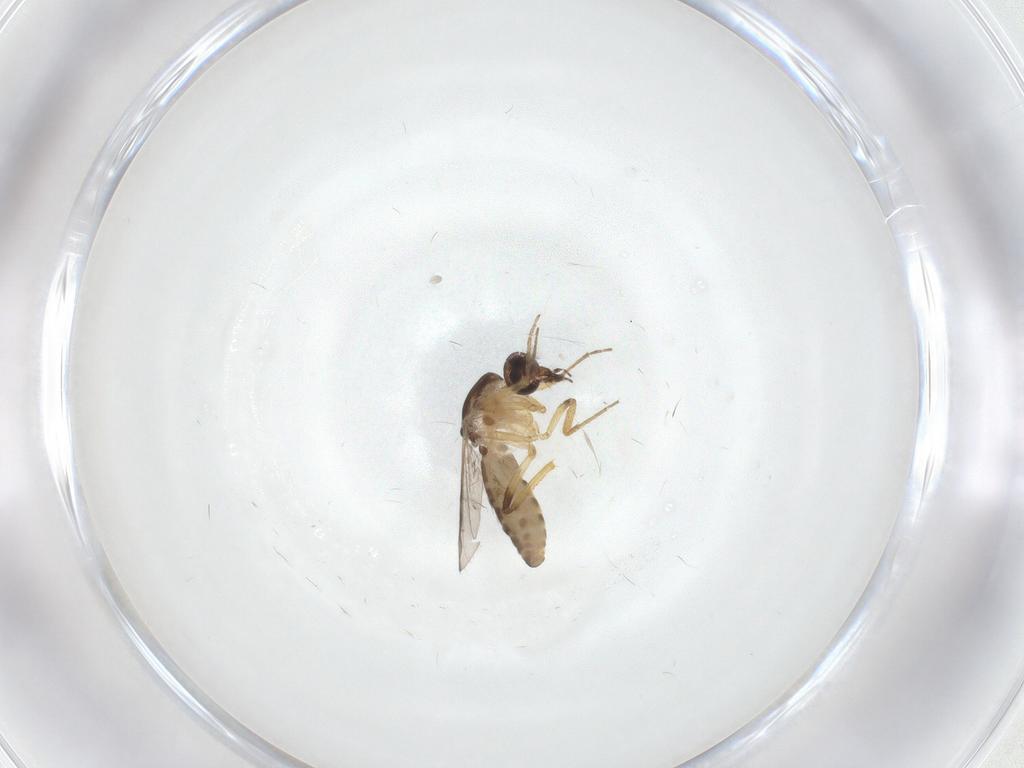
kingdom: Animalia
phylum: Arthropoda
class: Insecta
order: Diptera
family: Ceratopogonidae
